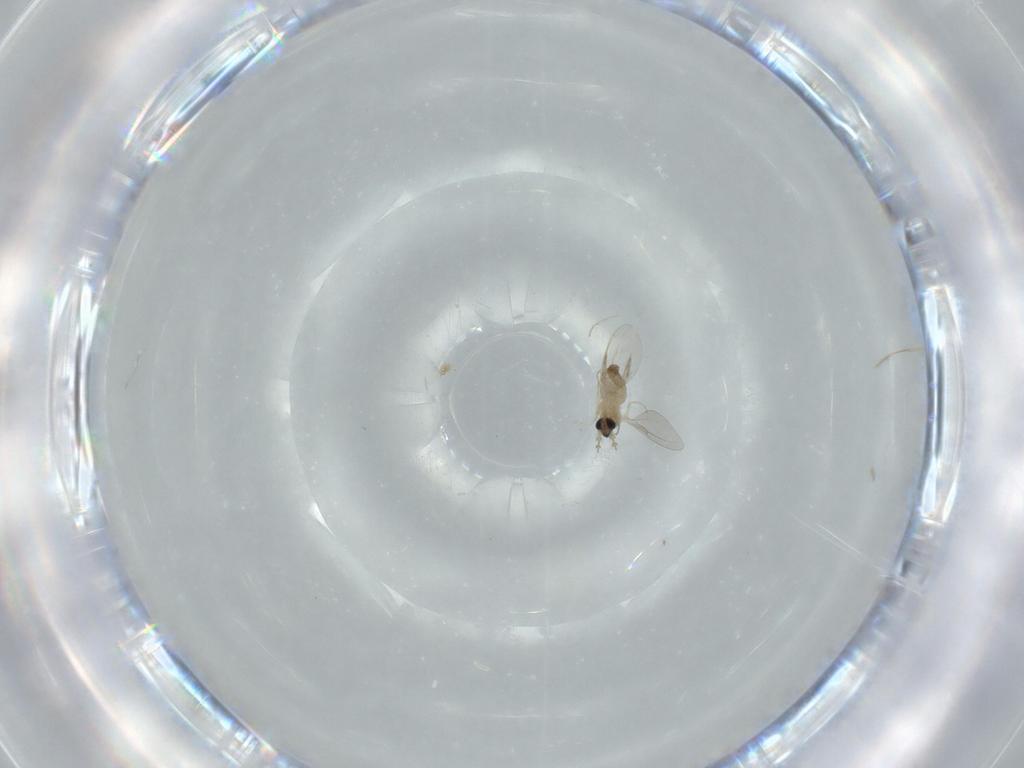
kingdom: Animalia
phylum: Arthropoda
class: Insecta
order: Diptera
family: Cecidomyiidae
